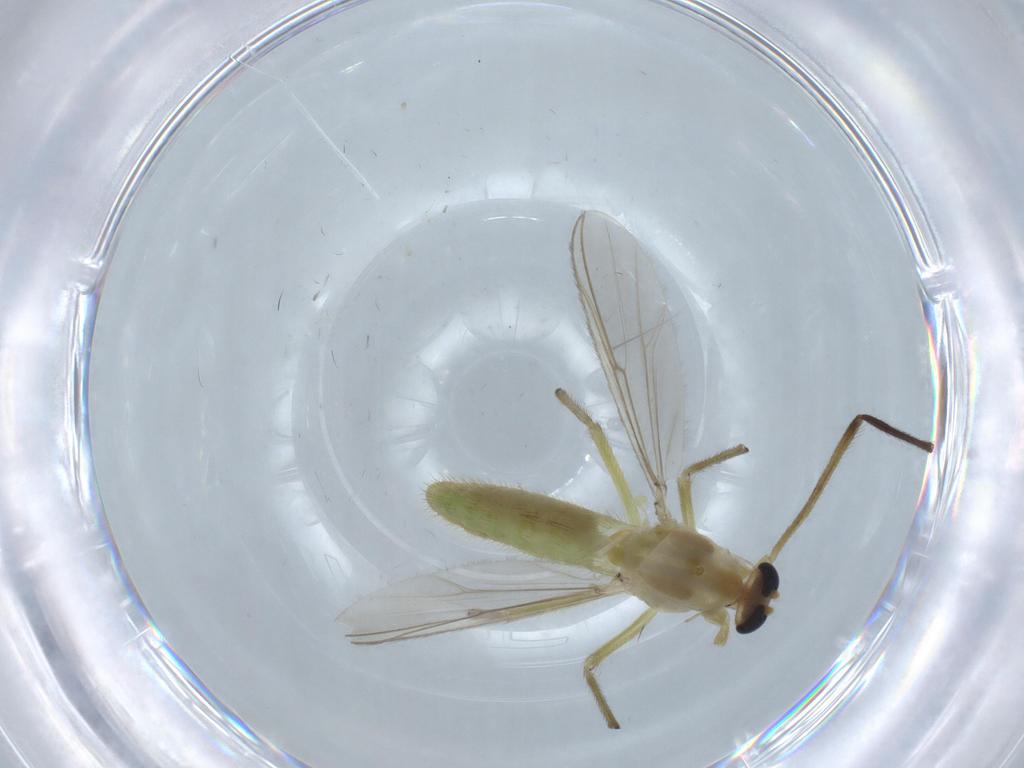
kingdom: Animalia
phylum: Arthropoda
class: Insecta
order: Diptera
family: Chironomidae
